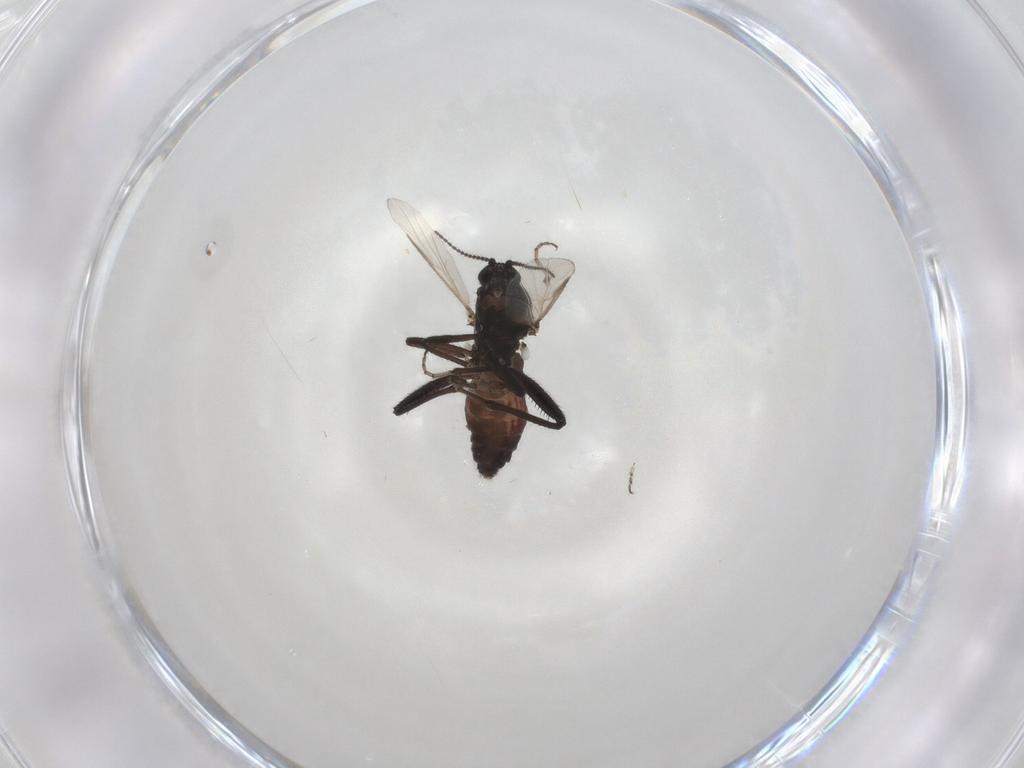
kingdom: Animalia
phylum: Arthropoda
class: Insecta
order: Diptera
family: Ceratopogonidae
